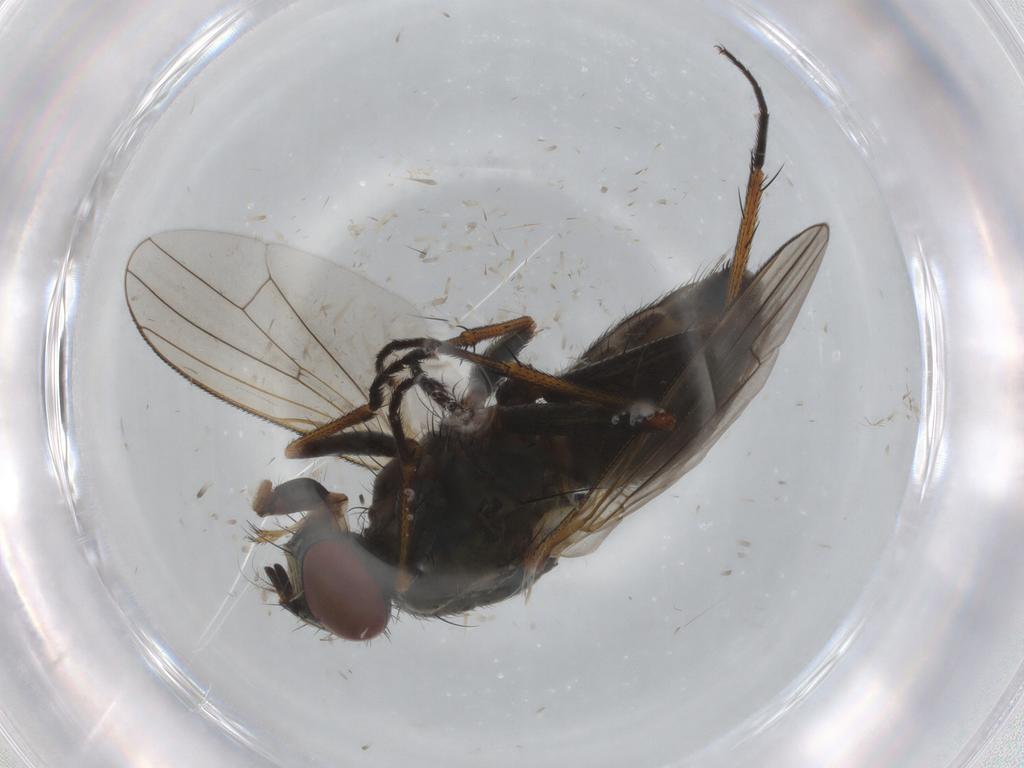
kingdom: Animalia
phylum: Arthropoda
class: Insecta
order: Diptera
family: Muscidae
